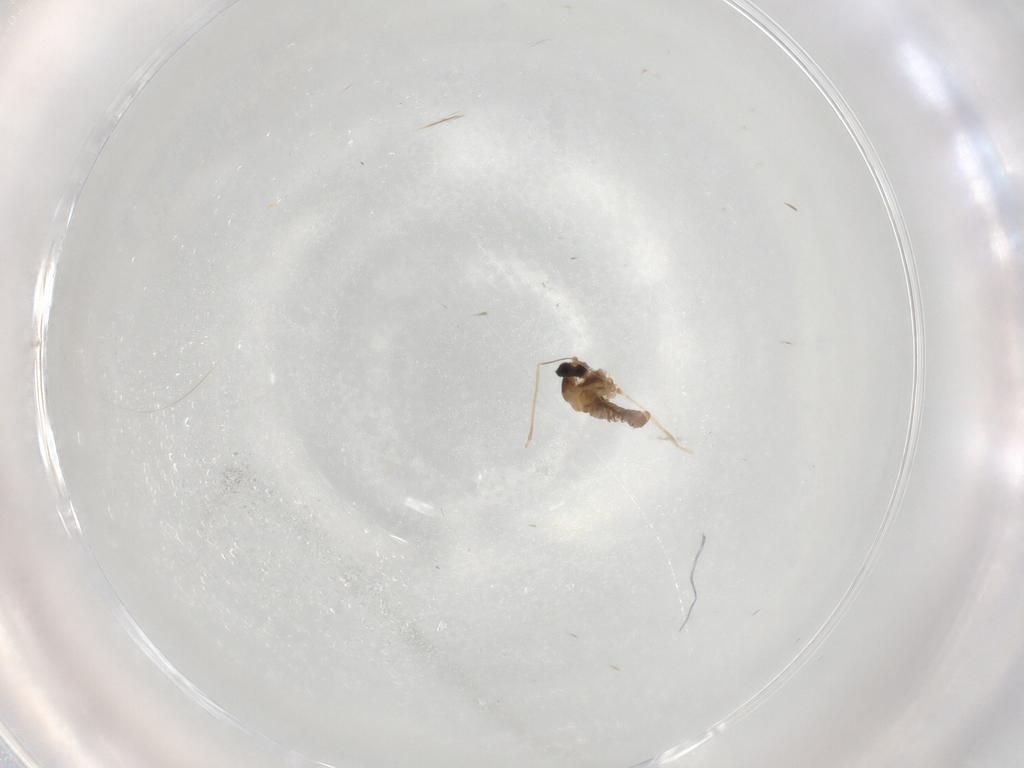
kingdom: Animalia
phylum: Arthropoda
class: Insecta
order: Diptera
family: Cecidomyiidae
